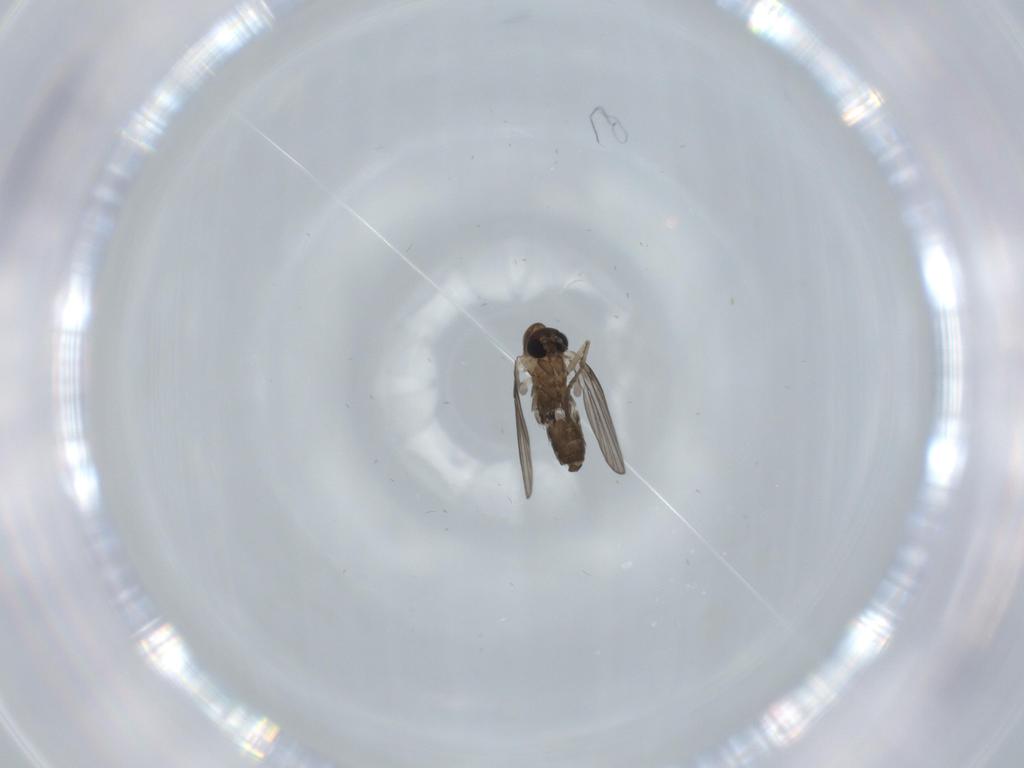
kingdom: Animalia
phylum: Arthropoda
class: Insecta
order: Diptera
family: Psychodidae
